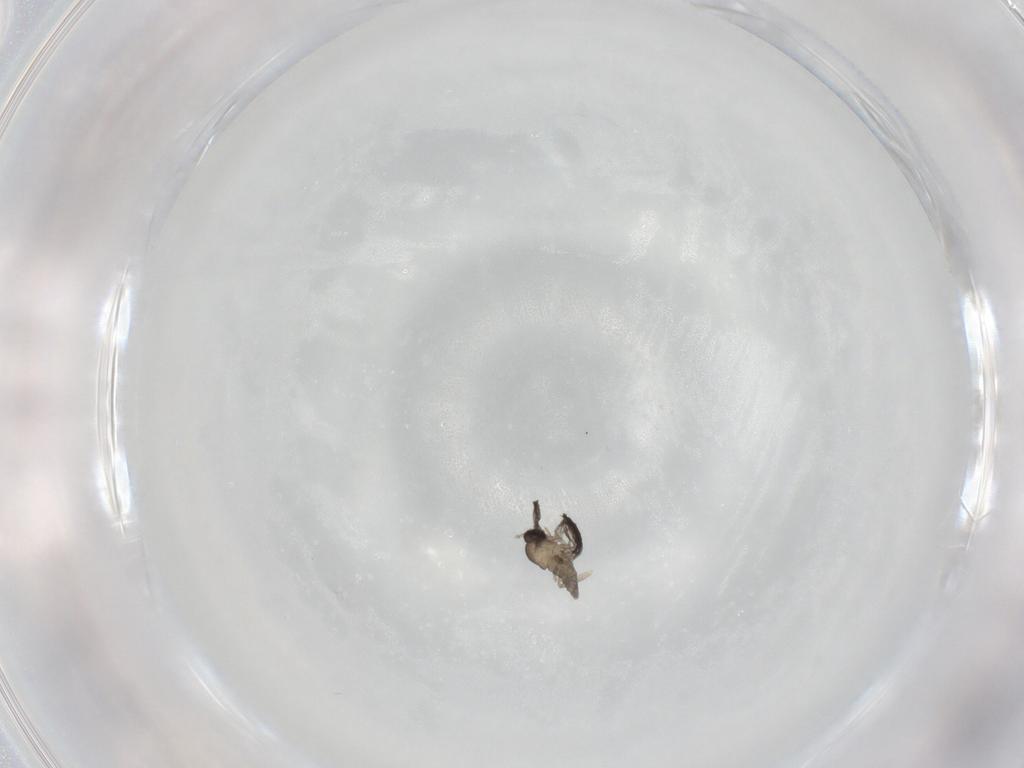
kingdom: Animalia
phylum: Arthropoda
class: Insecta
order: Diptera
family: Cecidomyiidae
